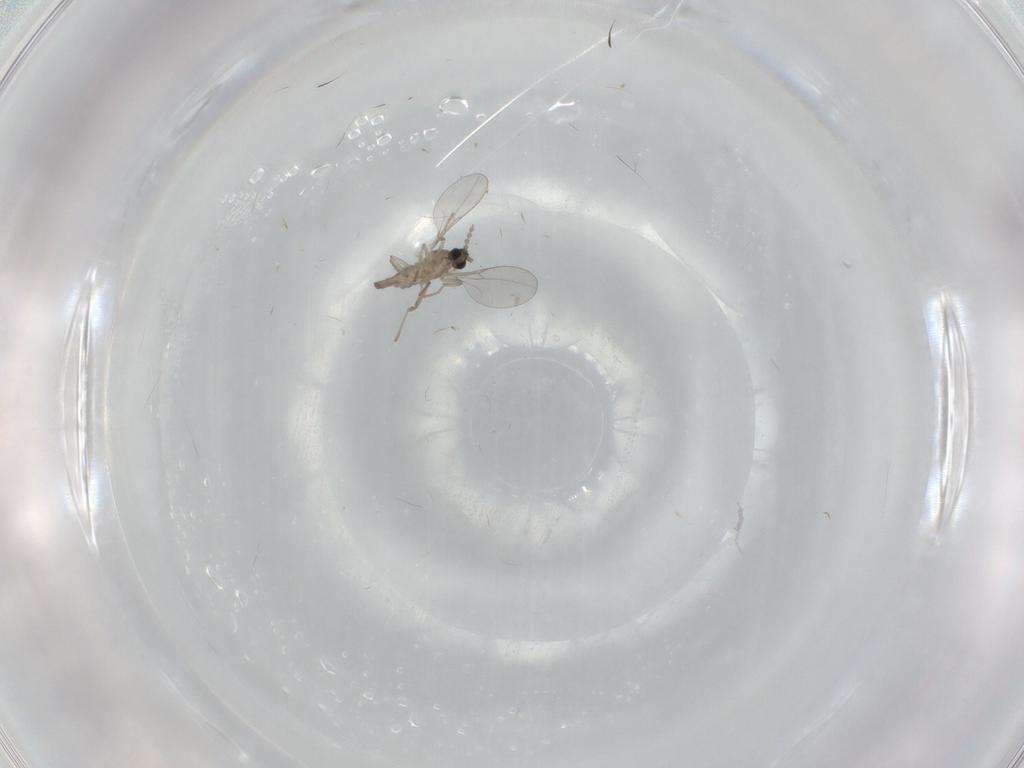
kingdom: Animalia
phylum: Arthropoda
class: Insecta
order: Diptera
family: Cecidomyiidae
